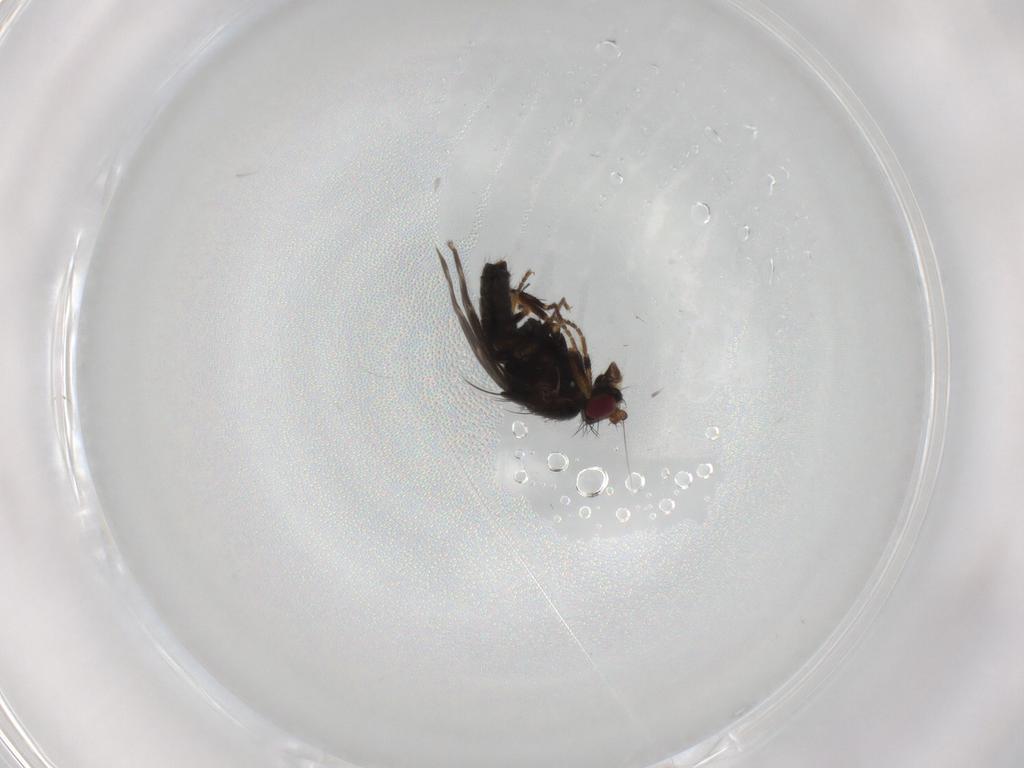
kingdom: Animalia
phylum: Arthropoda
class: Insecta
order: Diptera
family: Sphaeroceridae
